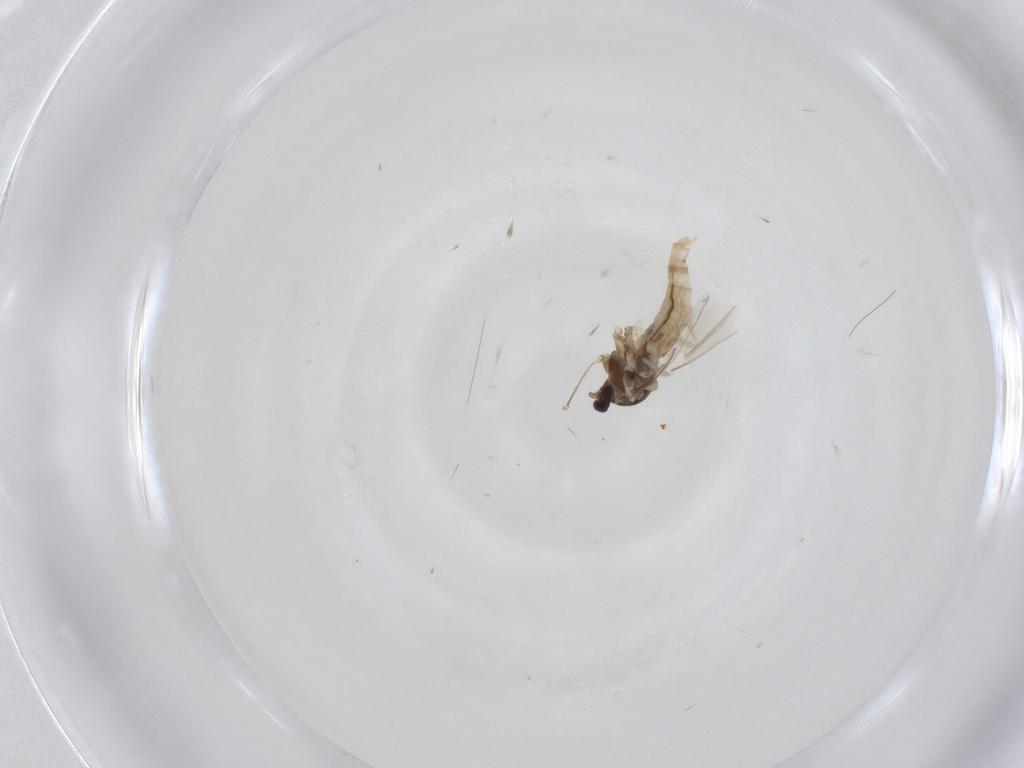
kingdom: Animalia
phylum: Arthropoda
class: Insecta
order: Diptera
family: Cecidomyiidae
